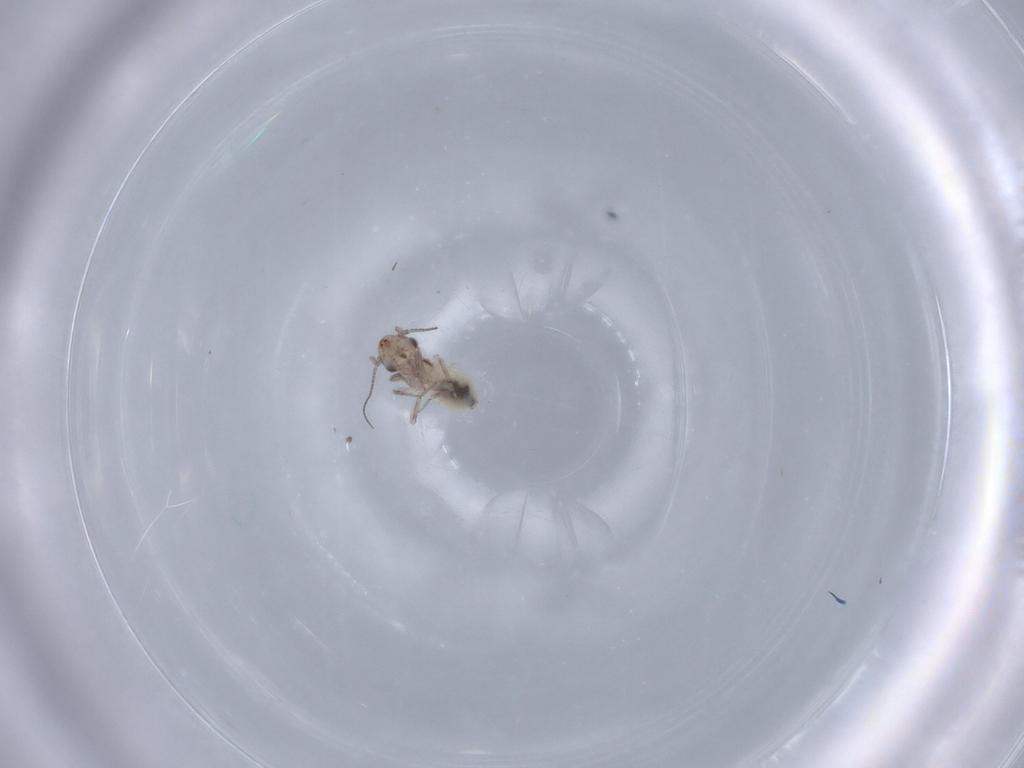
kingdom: Animalia
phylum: Arthropoda
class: Insecta
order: Psocodea
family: Lepidopsocidae
